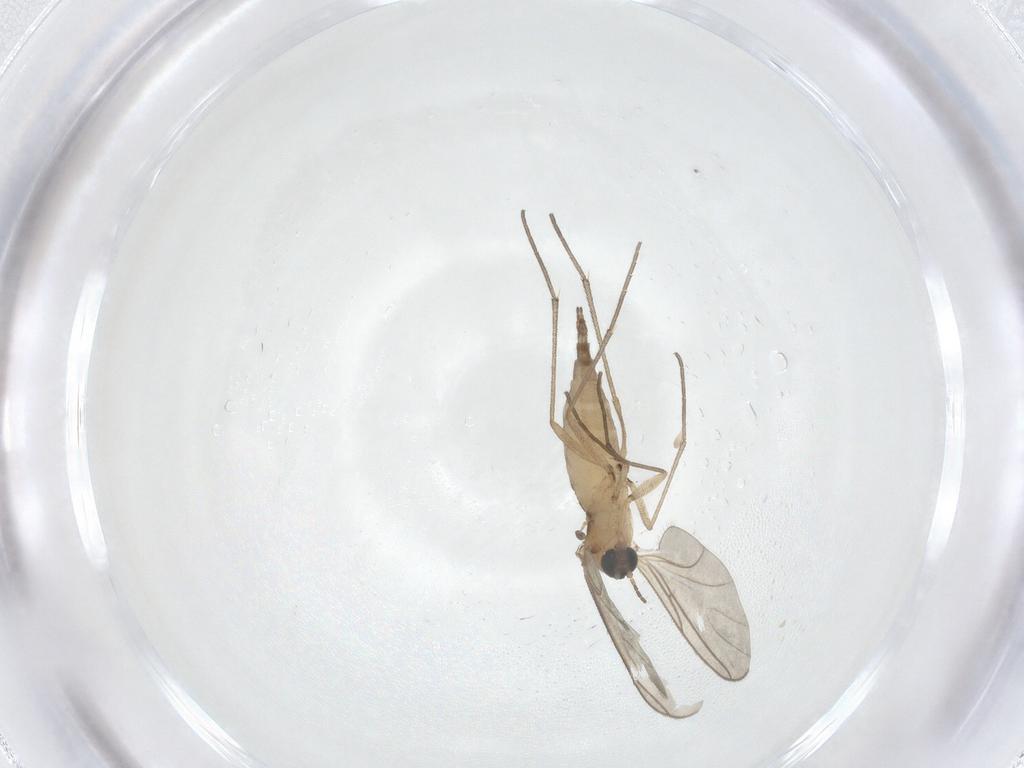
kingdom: Animalia
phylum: Arthropoda
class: Insecta
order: Diptera
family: Sciaridae
